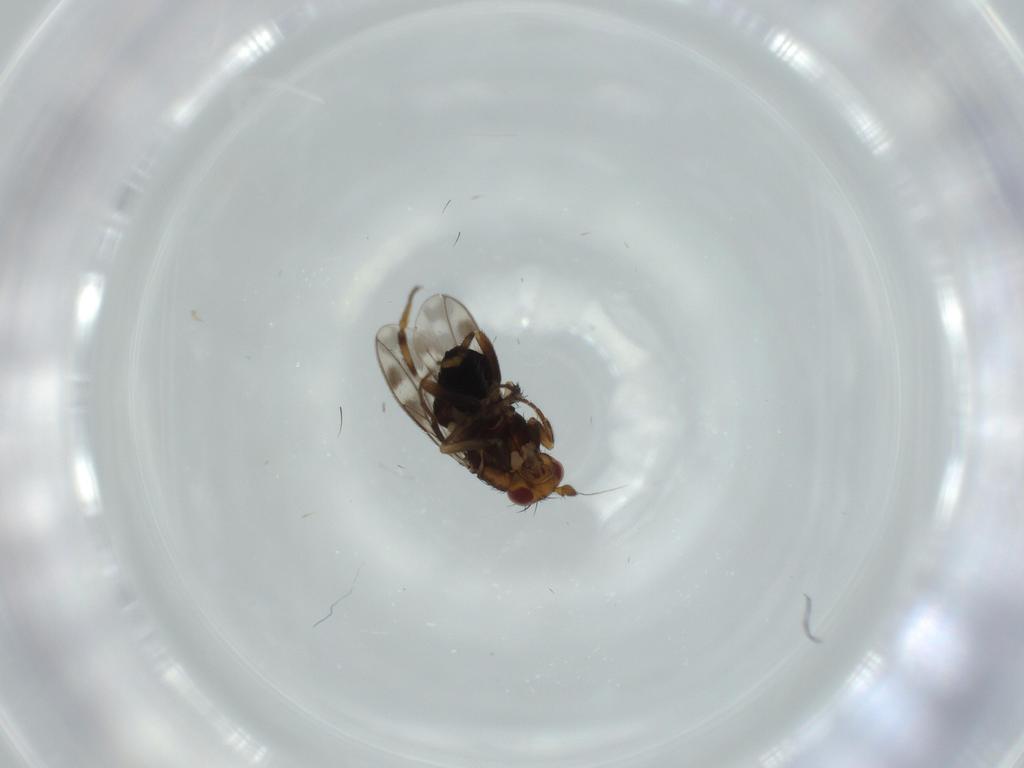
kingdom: Animalia
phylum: Arthropoda
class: Insecta
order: Diptera
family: Sphaeroceridae
